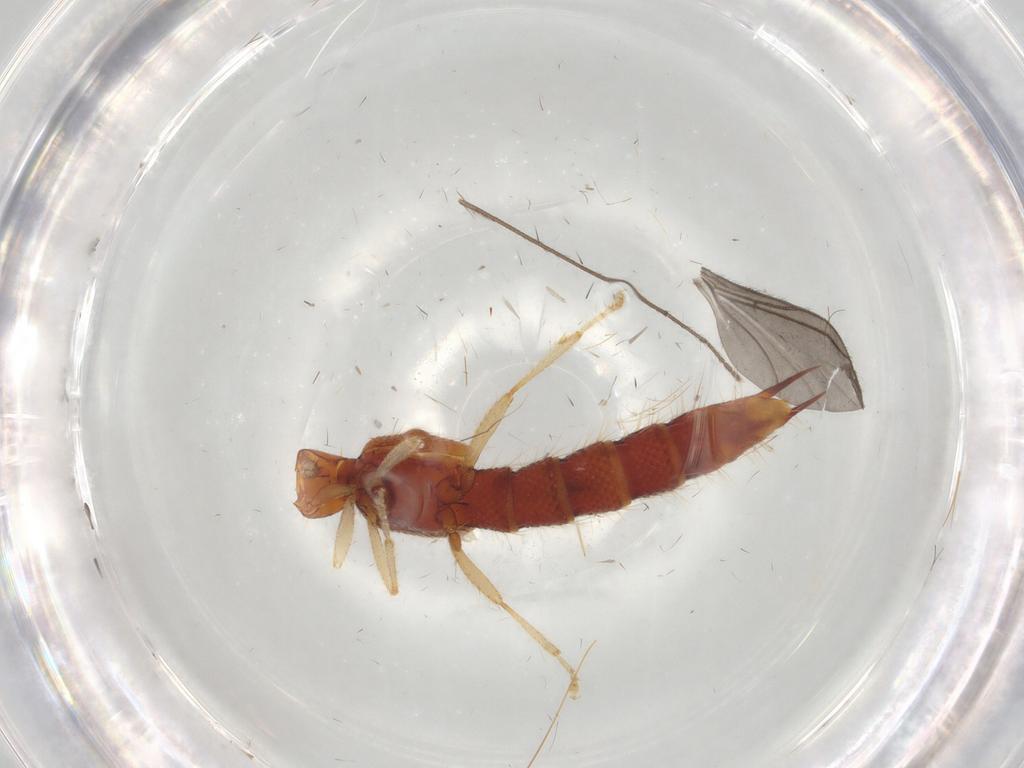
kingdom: Animalia
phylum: Arthropoda
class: Insecta
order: Coleoptera
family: Staphylinidae
